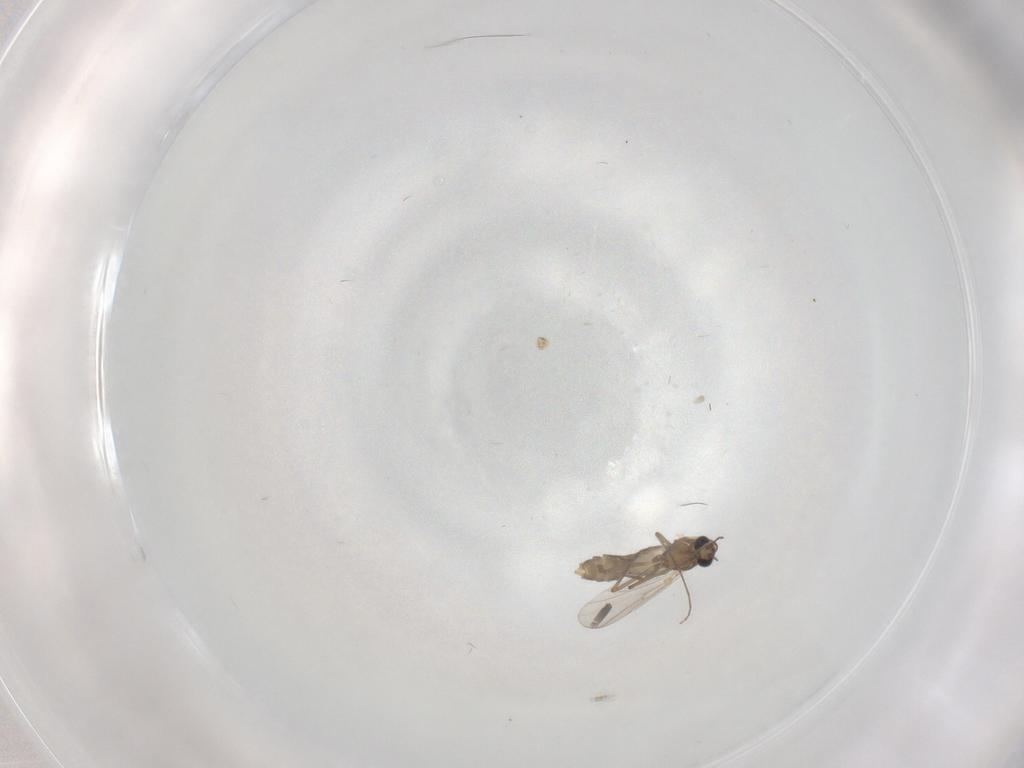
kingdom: Animalia
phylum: Arthropoda
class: Insecta
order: Diptera
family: Chironomidae
